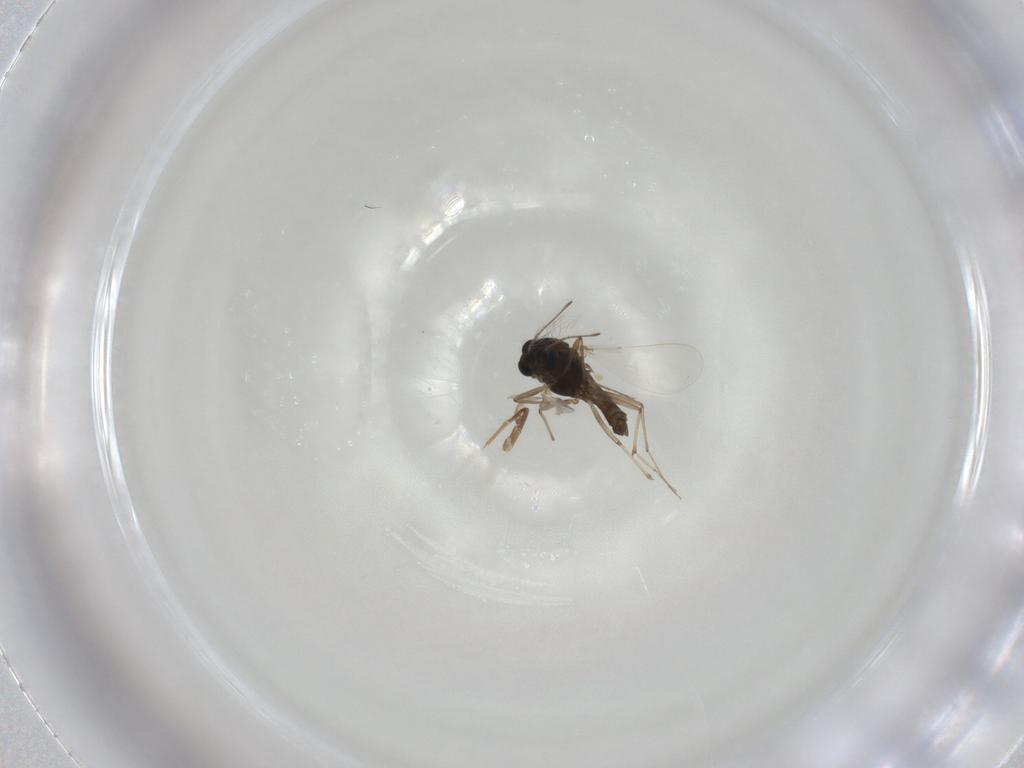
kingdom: Animalia
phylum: Arthropoda
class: Insecta
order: Diptera
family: Chironomidae
